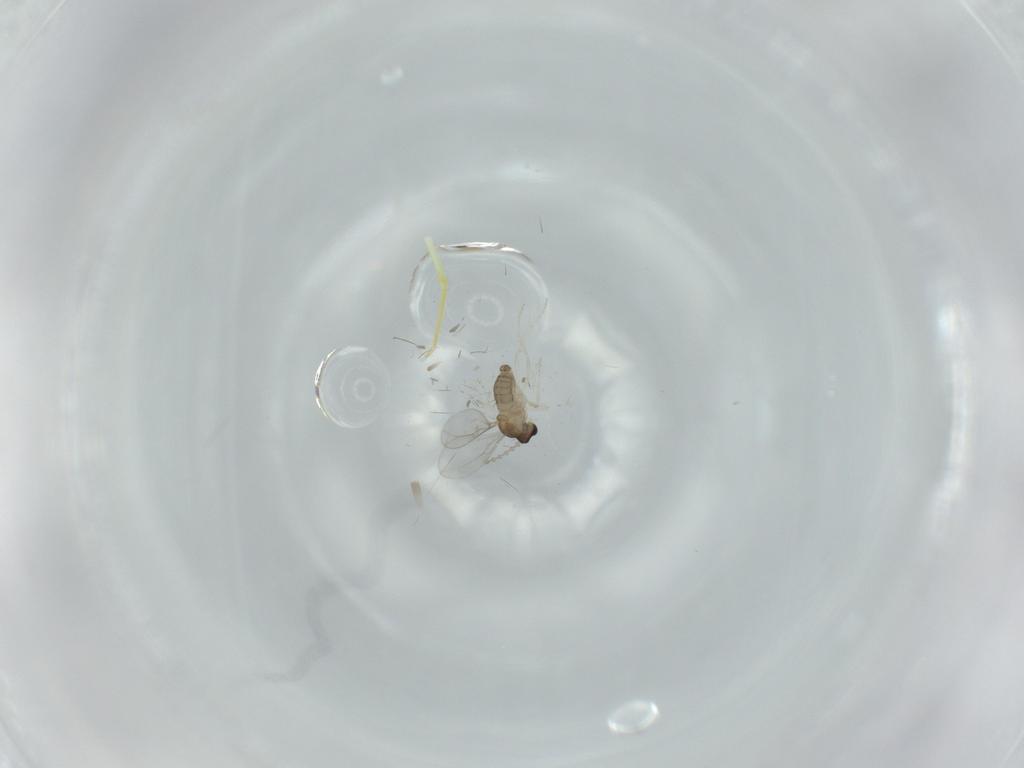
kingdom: Animalia
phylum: Arthropoda
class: Insecta
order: Diptera
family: Cecidomyiidae
